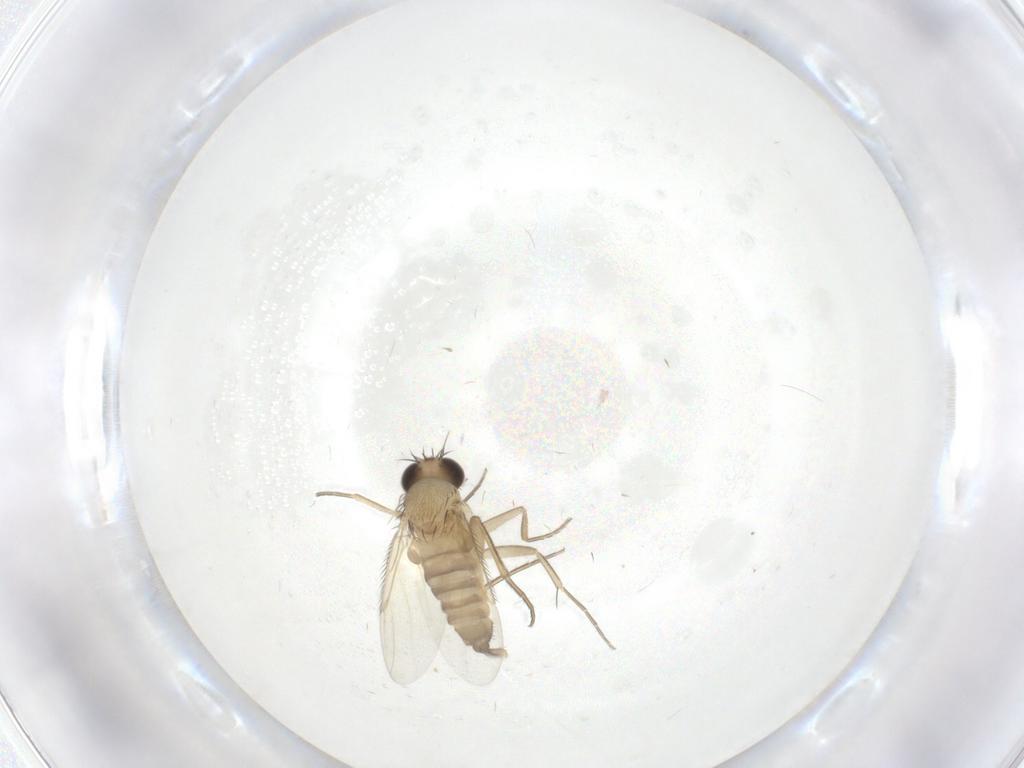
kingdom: Animalia
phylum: Arthropoda
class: Insecta
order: Diptera
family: Phoridae
